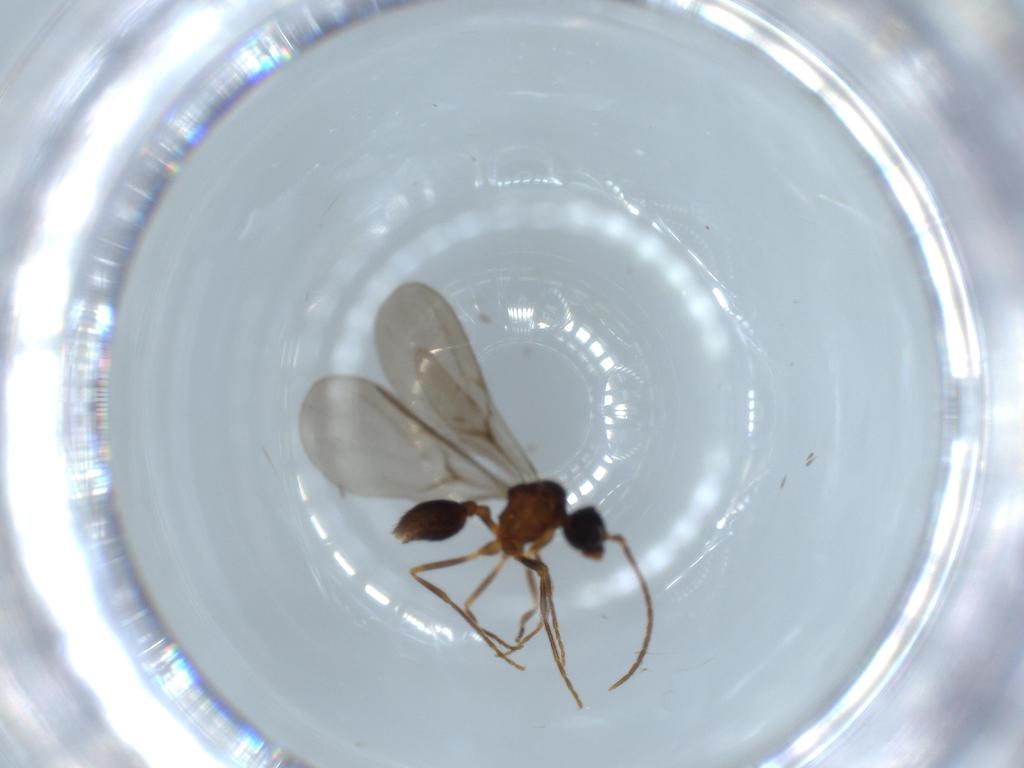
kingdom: Animalia
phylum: Arthropoda
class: Insecta
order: Hymenoptera
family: Formicidae
